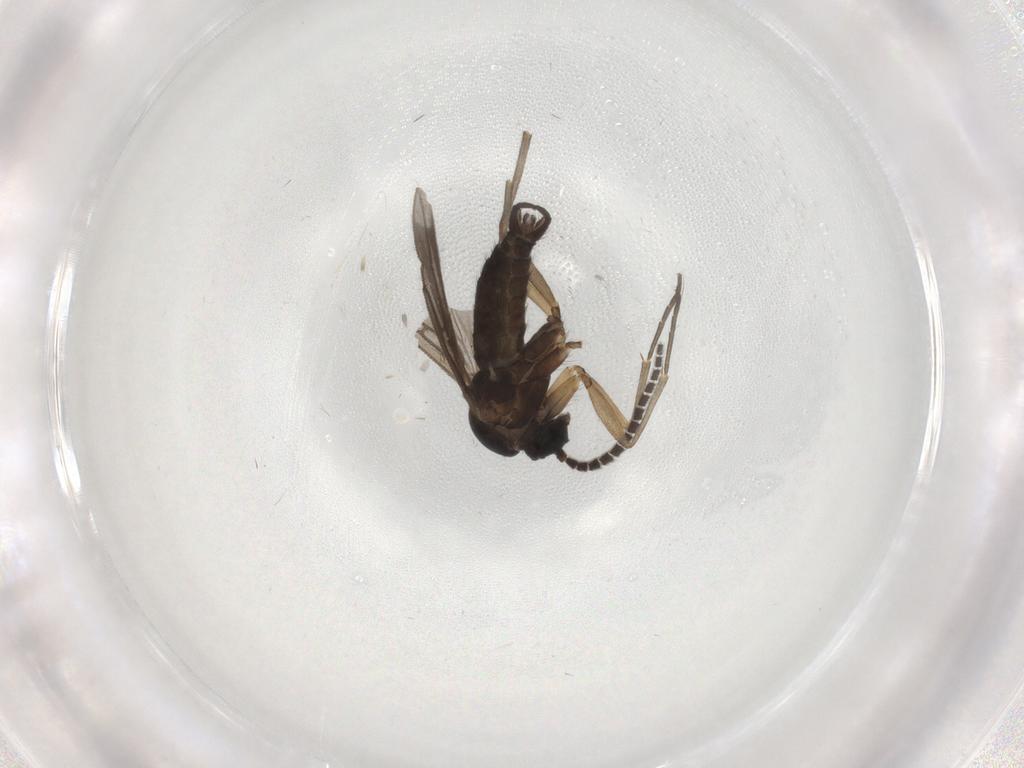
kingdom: Animalia
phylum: Arthropoda
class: Insecta
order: Diptera
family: Sciaridae
